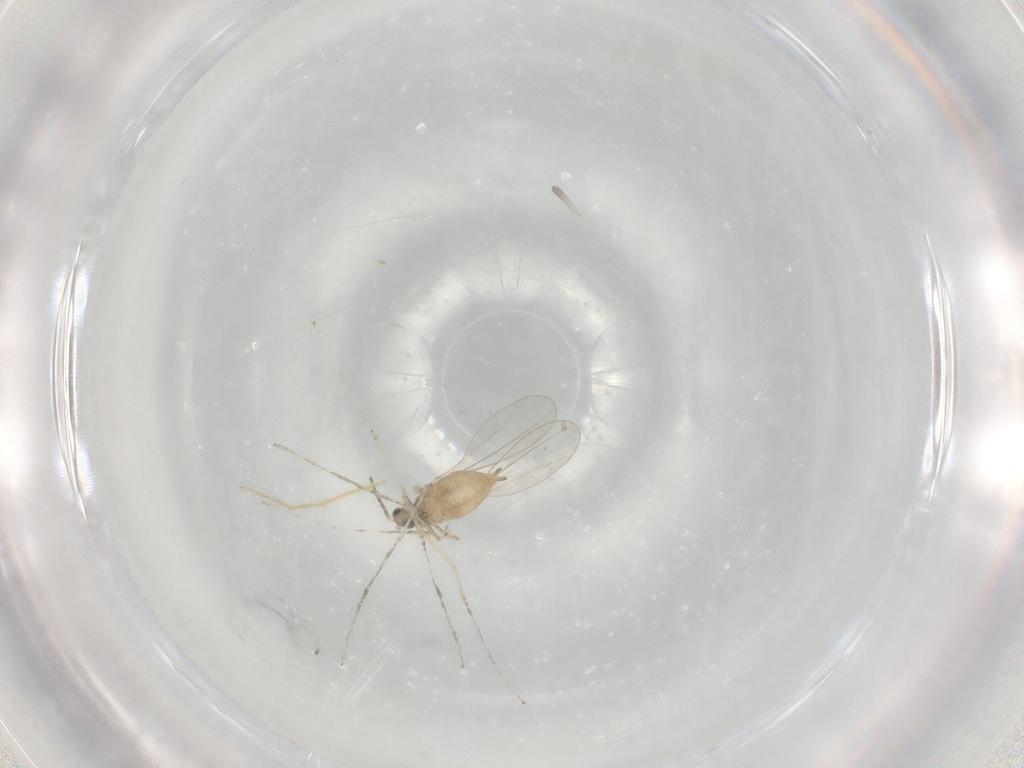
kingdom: Animalia
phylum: Arthropoda
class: Insecta
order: Diptera
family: Cecidomyiidae
